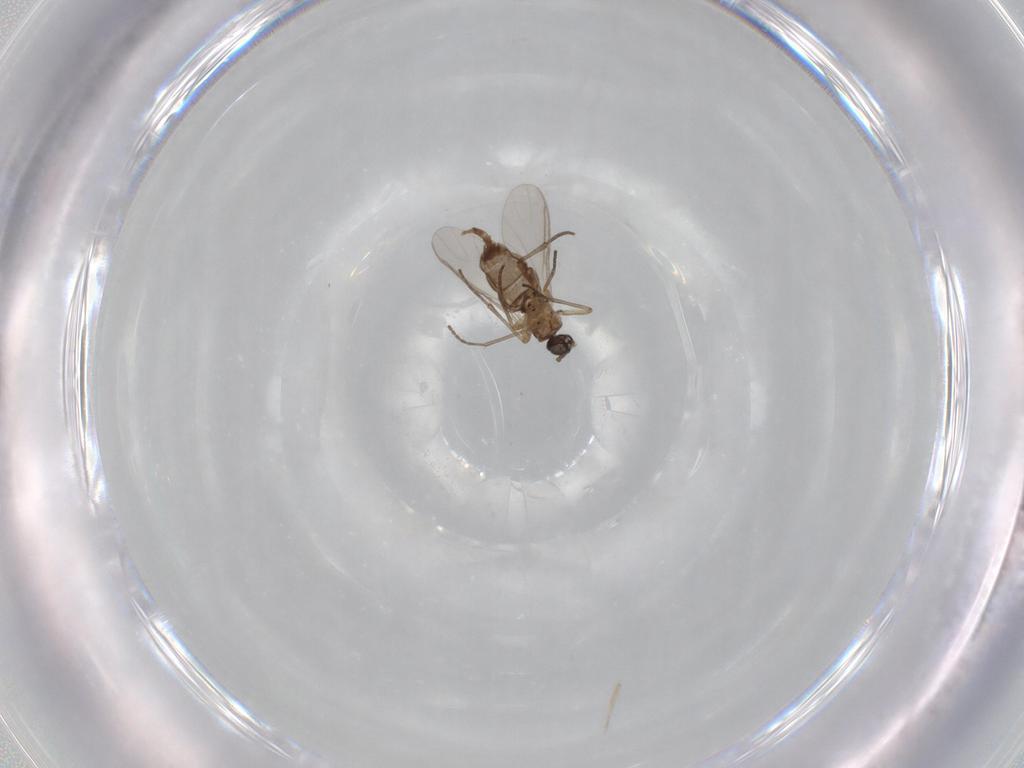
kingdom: Animalia
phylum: Arthropoda
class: Insecta
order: Diptera
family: Sciaridae
